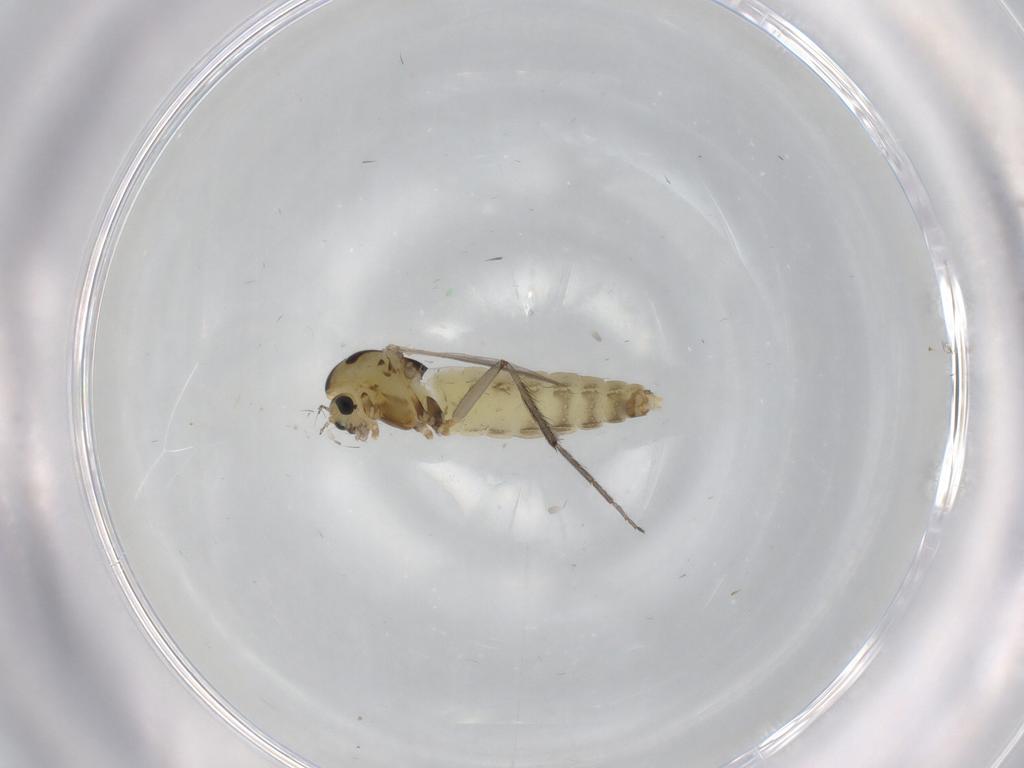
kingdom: Animalia
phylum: Arthropoda
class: Insecta
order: Diptera
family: Chironomidae
